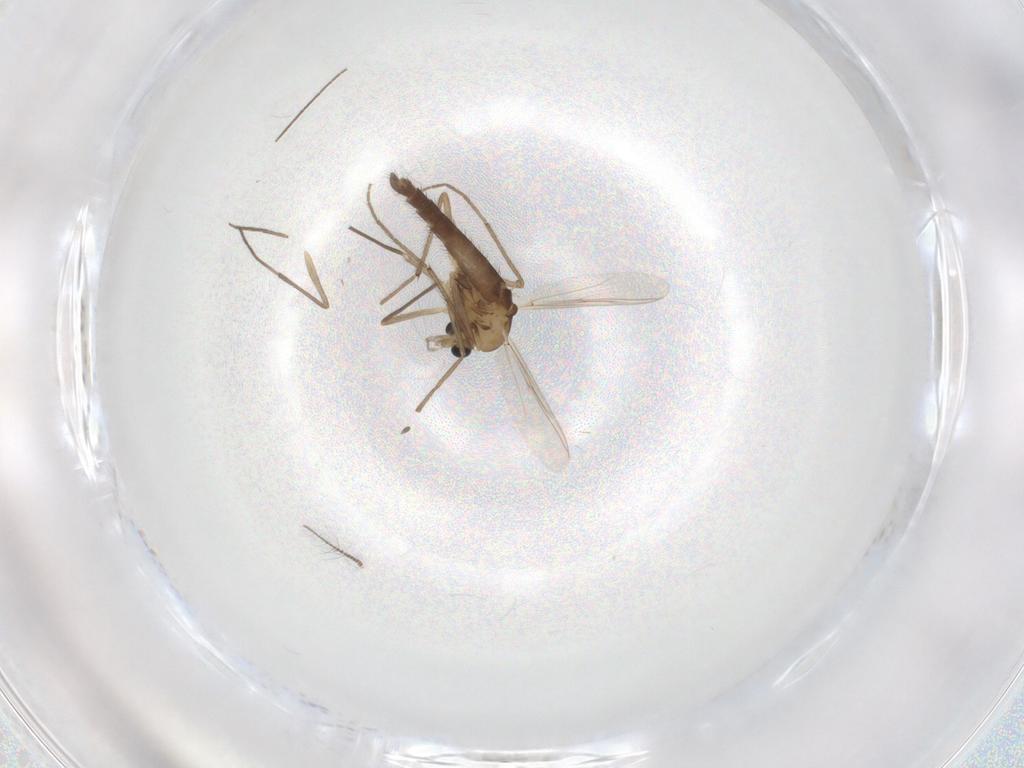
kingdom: Animalia
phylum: Arthropoda
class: Insecta
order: Diptera
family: Chironomidae
